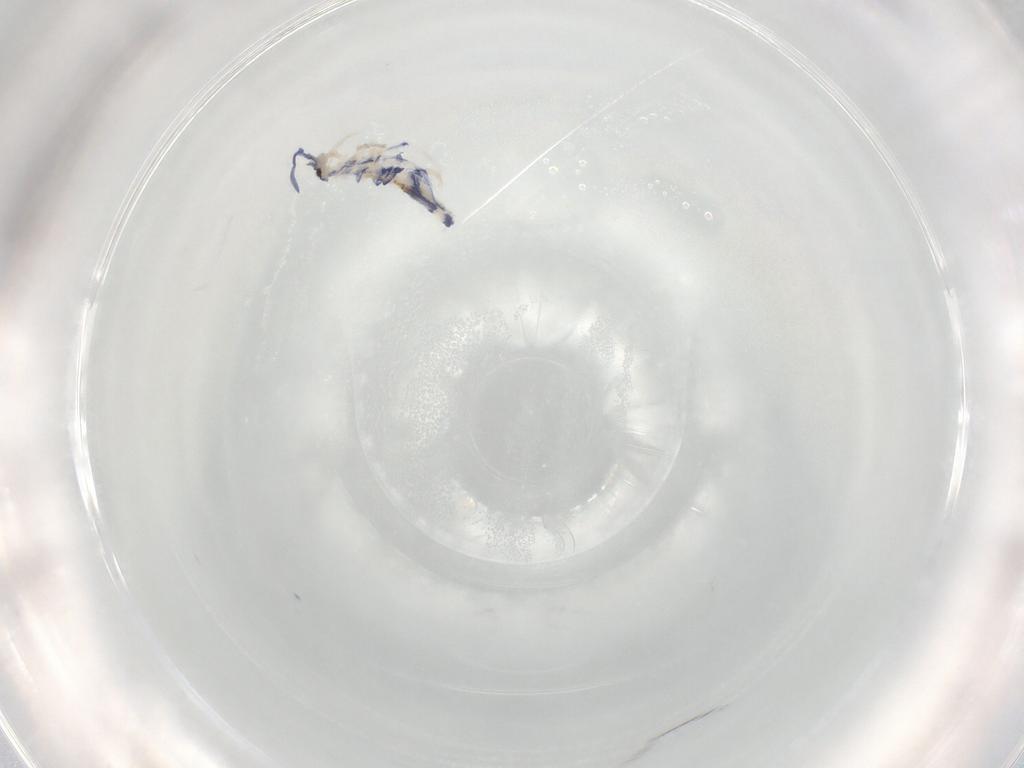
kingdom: Animalia
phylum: Arthropoda
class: Collembola
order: Entomobryomorpha
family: Entomobryidae
